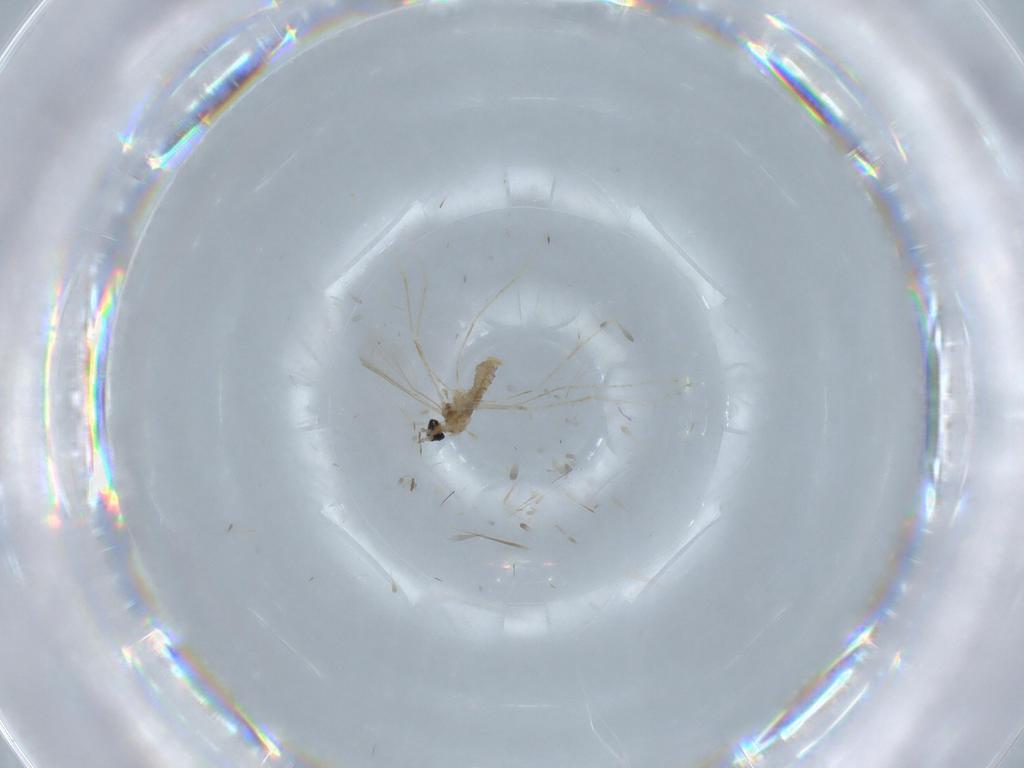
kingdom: Animalia
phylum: Arthropoda
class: Insecta
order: Diptera
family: Cecidomyiidae
